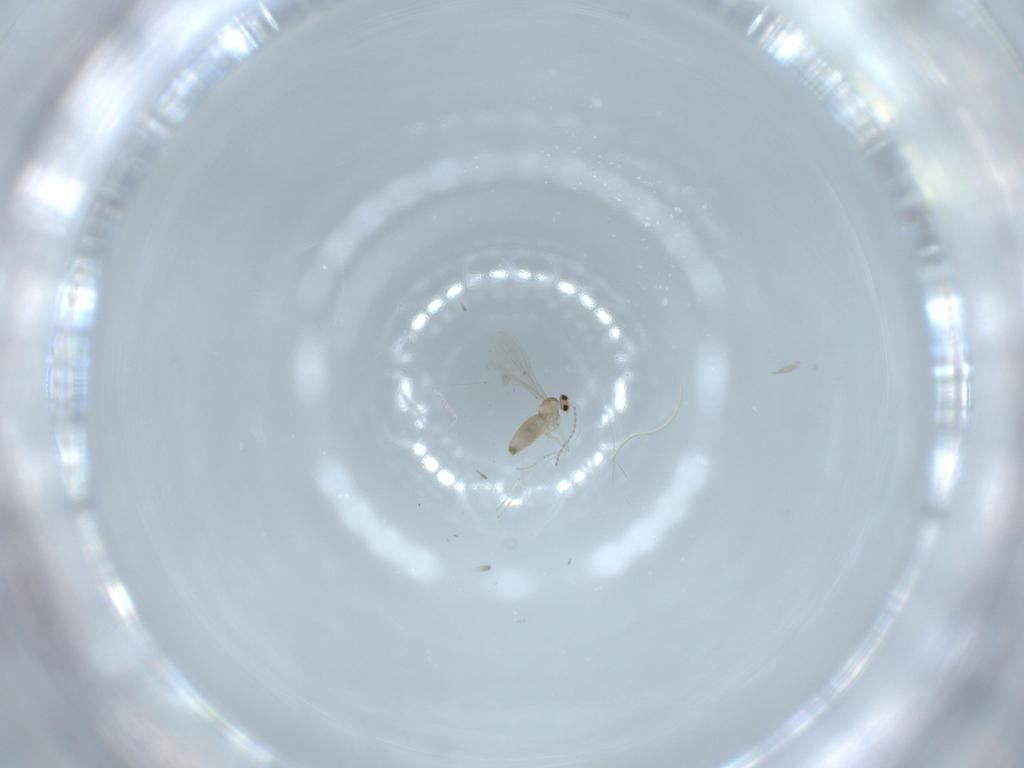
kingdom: Animalia
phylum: Arthropoda
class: Insecta
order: Diptera
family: Cecidomyiidae
